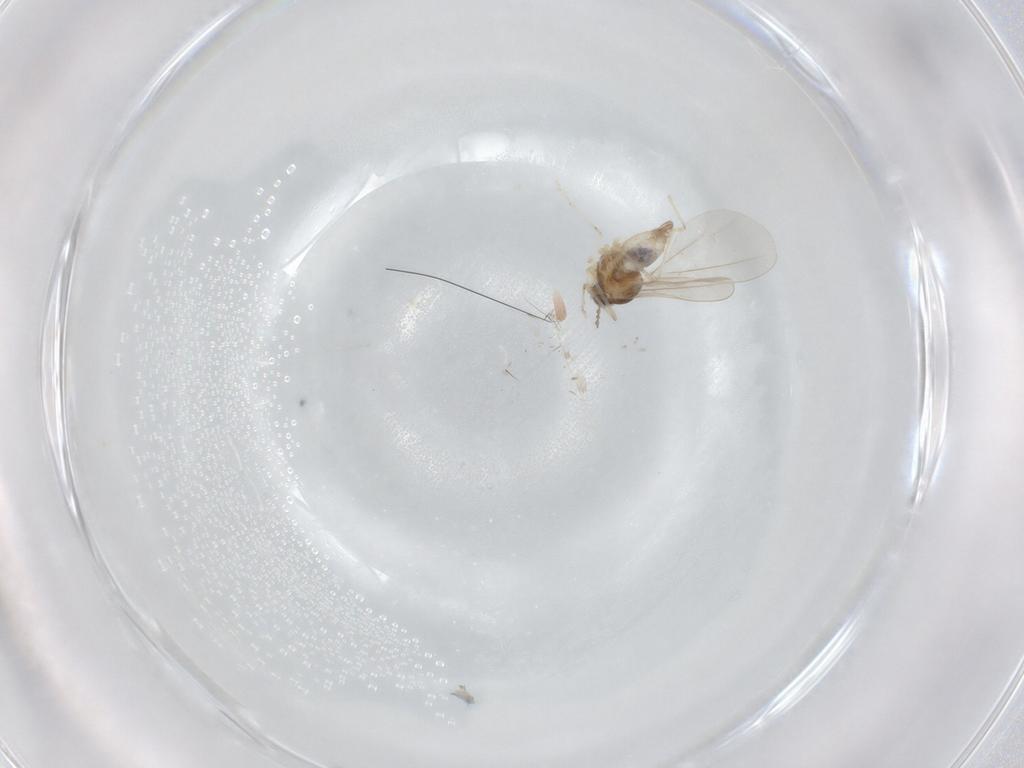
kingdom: Animalia
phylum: Arthropoda
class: Insecta
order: Diptera
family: Cecidomyiidae
